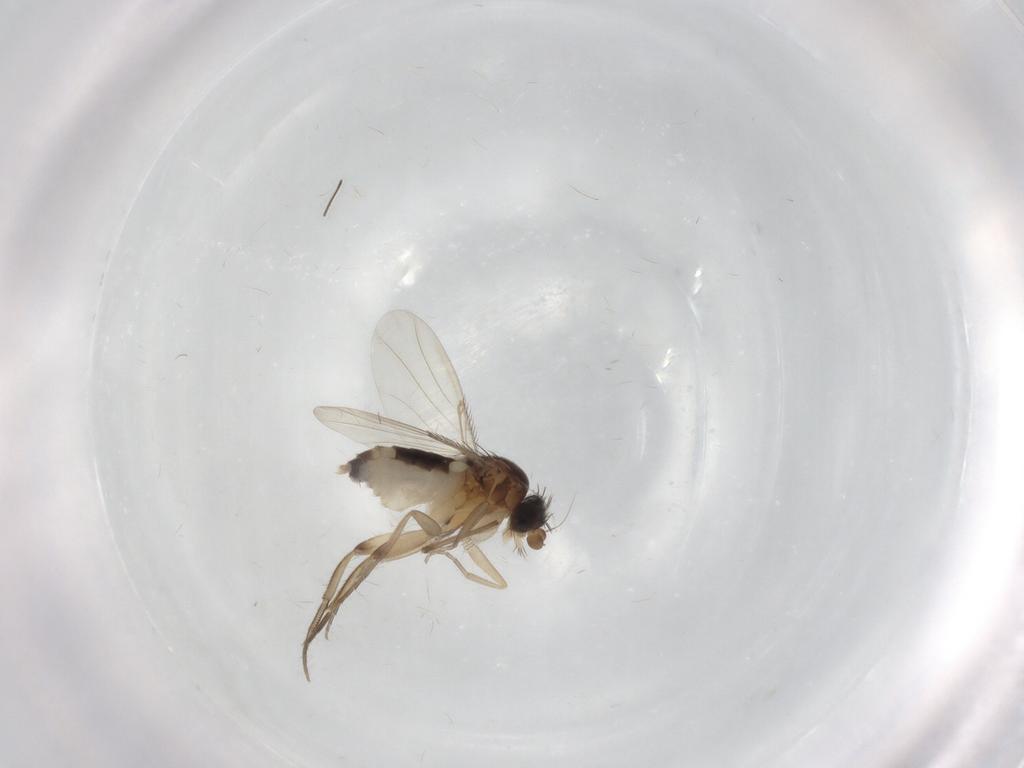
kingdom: Animalia
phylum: Arthropoda
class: Insecta
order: Diptera
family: Phoridae
